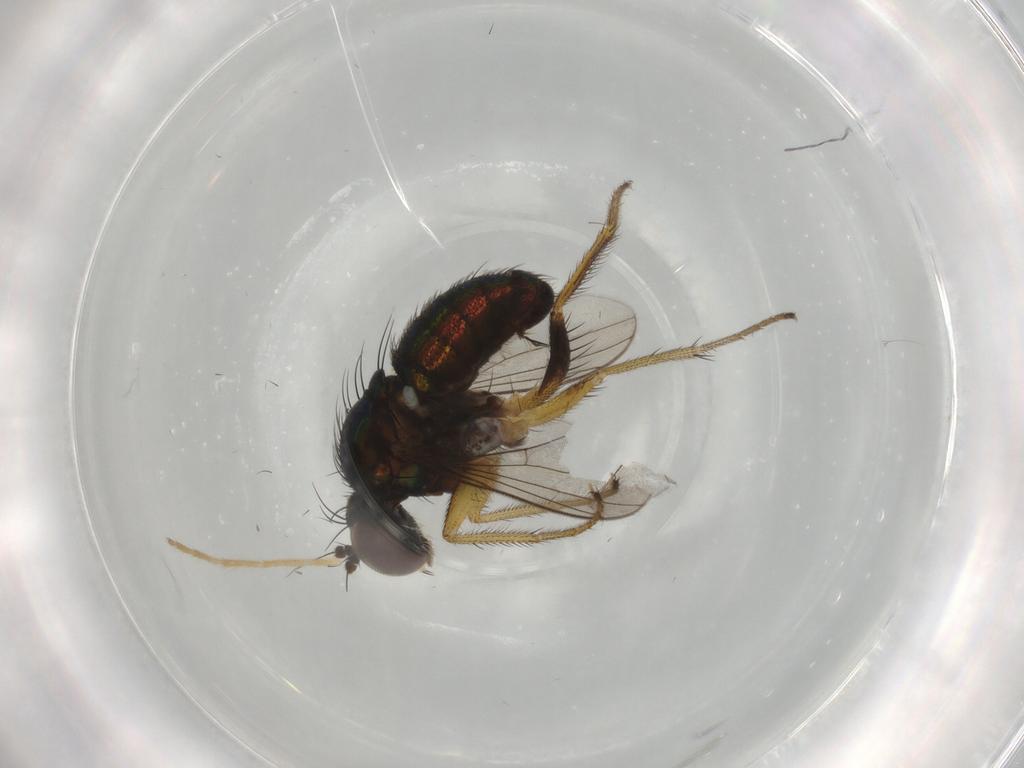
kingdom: Animalia
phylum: Arthropoda
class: Insecta
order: Diptera
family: Dolichopodidae
